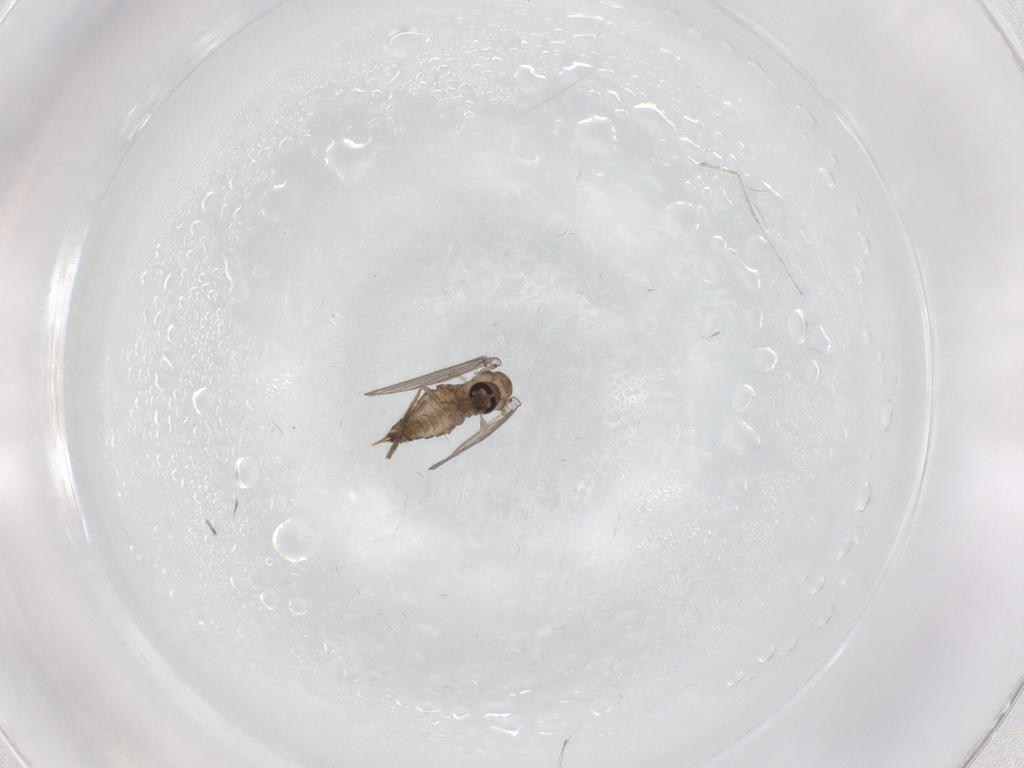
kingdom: Animalia
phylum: Arthropoda
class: Insecta
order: Diptera
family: Psychodidae
